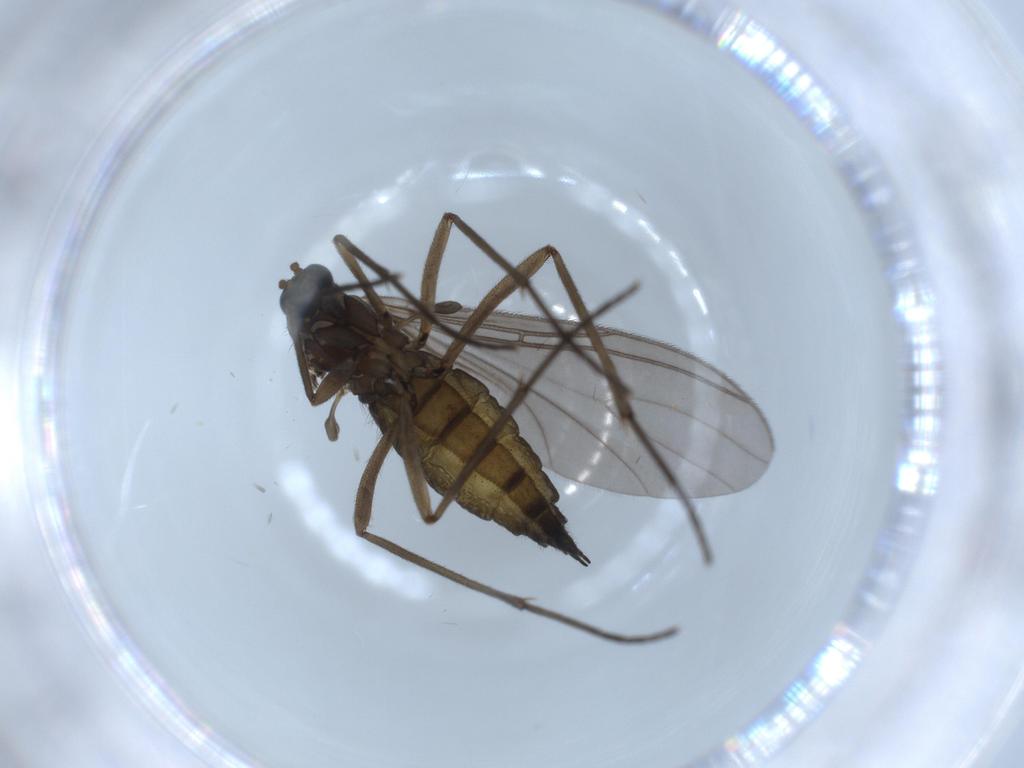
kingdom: Animalia
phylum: Arthropoda
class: Insecta
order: Diptera
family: Sciaridae
